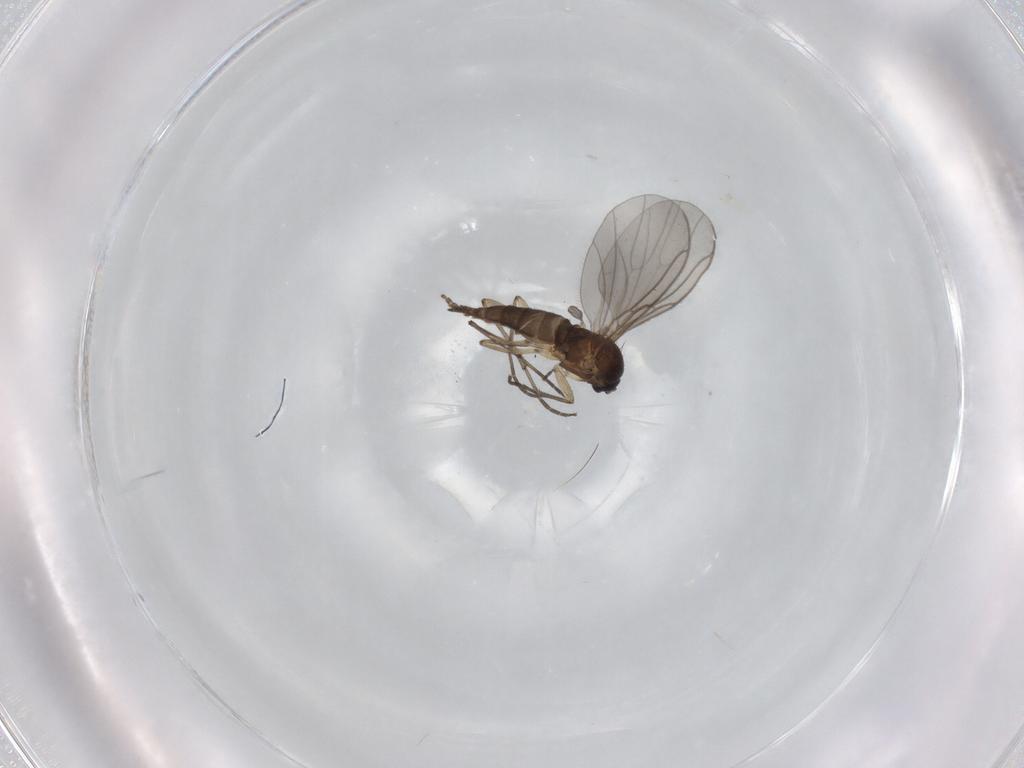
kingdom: Animalia
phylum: Arthropoda
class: Insecta
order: Diptera
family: Sciaridae
